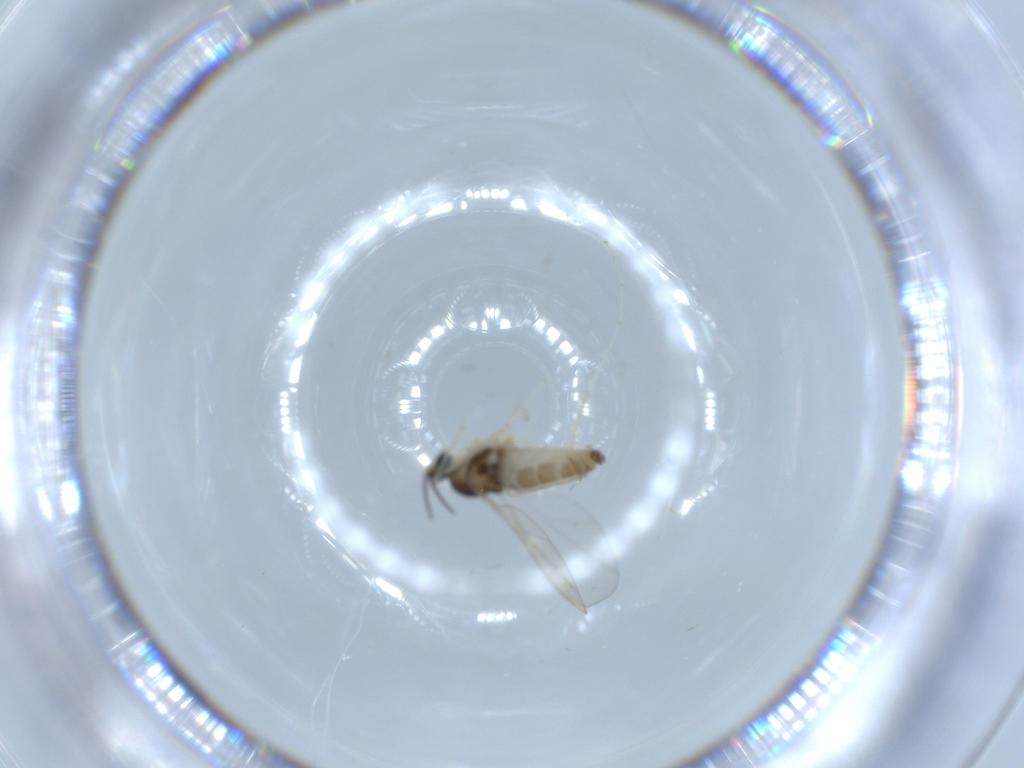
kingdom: Animalia
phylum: Arthropoda
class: Insecta
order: Diptera
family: Cecidomyiidae
